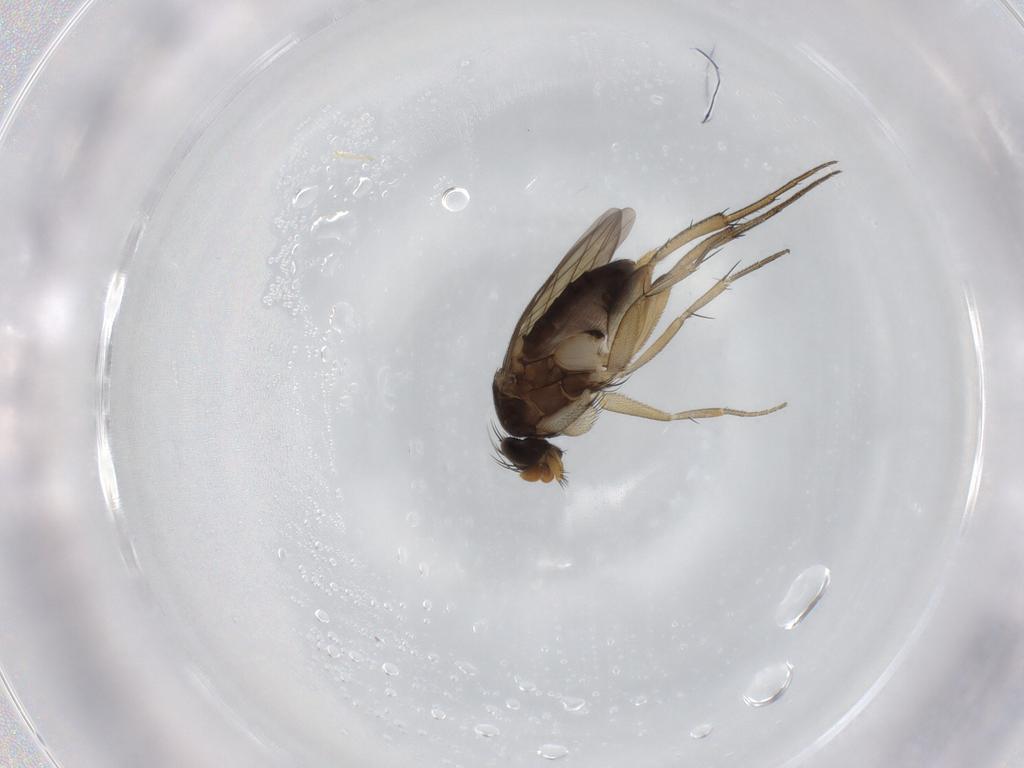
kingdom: Animalia
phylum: Arthropoda
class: Insecta
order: Diptera
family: Phoridae
